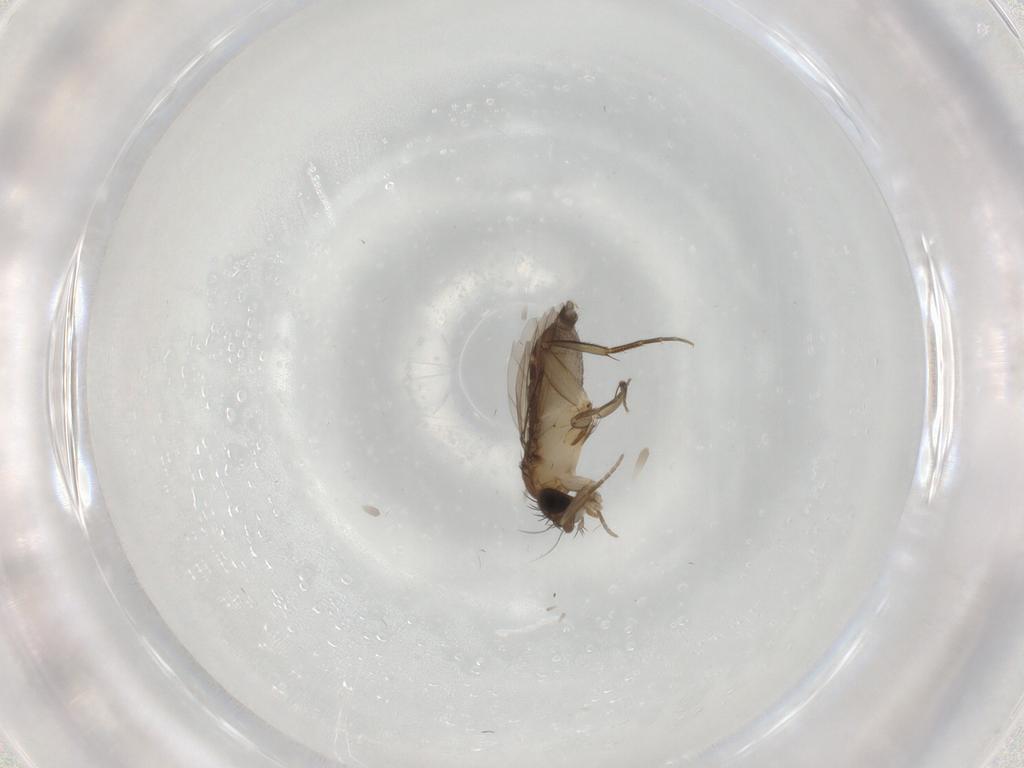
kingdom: Animalia
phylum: Arthropoda
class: Insecta
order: Diptera
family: Phoridae
